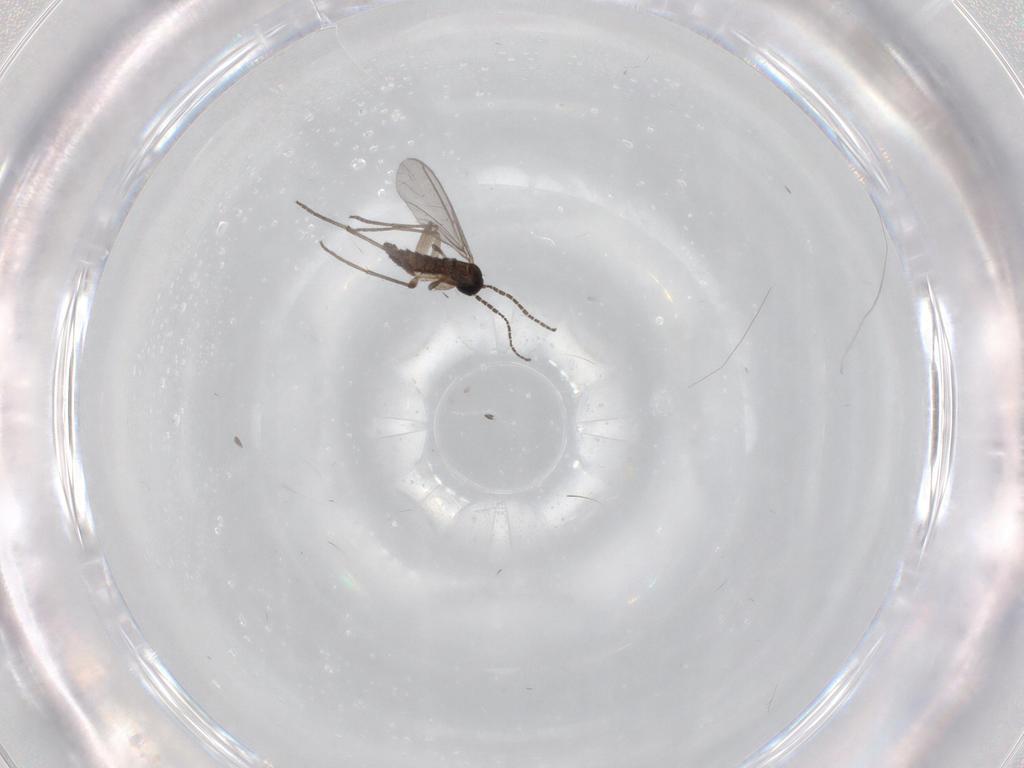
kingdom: Animalia
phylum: Arthropoda
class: Insecta
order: Diptera
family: Sciaridae
